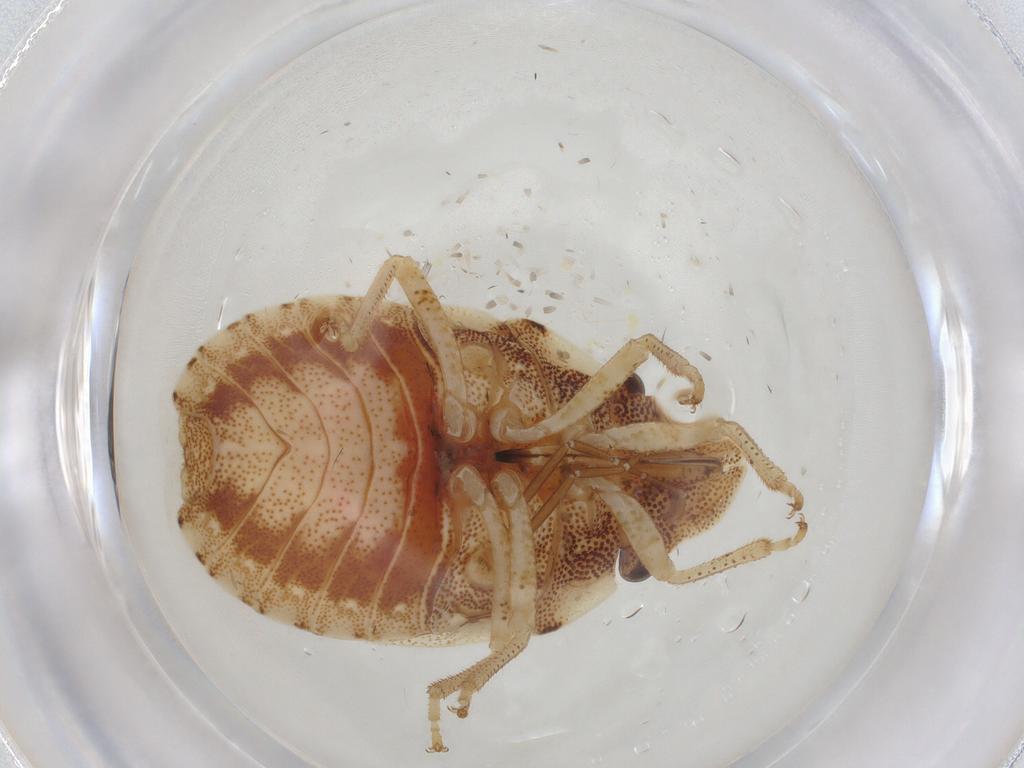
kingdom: Animalia
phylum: Arthropoda
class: Insecta
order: Hemiptera
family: Pentatomidae
